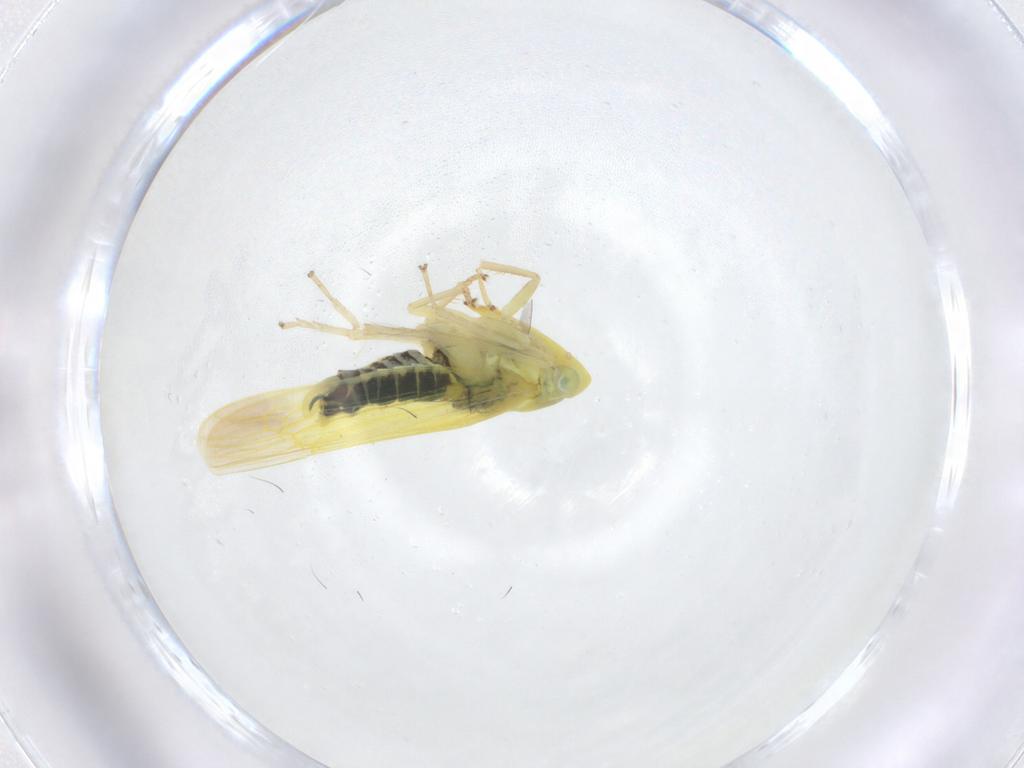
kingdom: Animalia
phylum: Arthropoda
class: Insecta
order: Hemiptera
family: Cicadellidae
